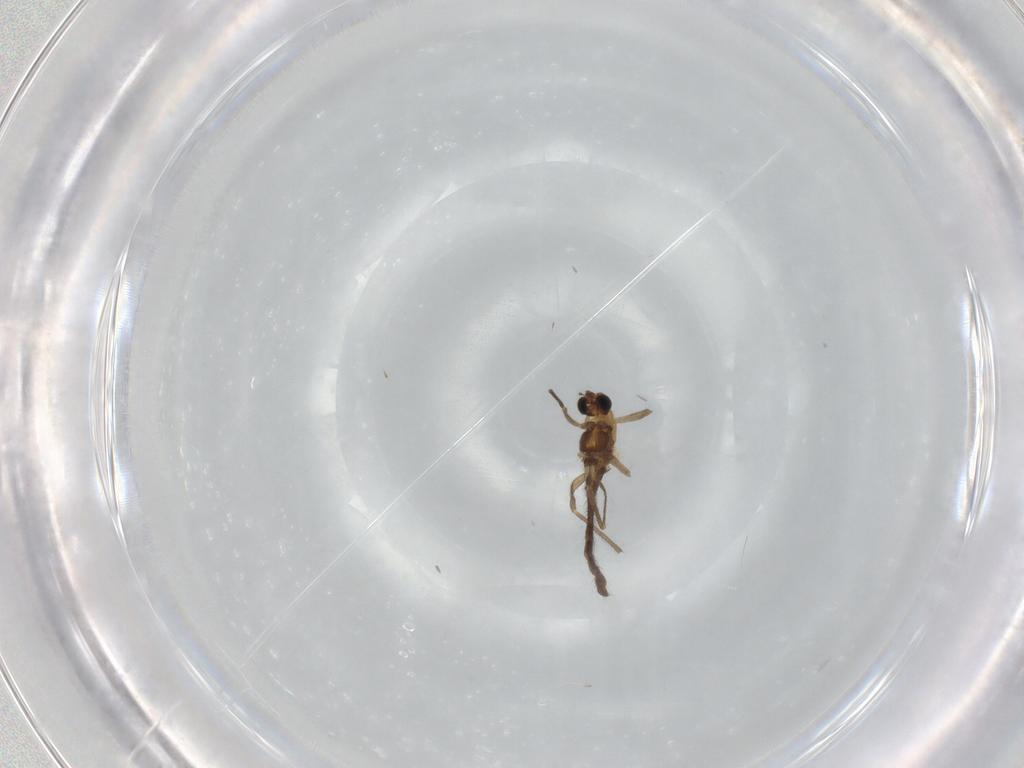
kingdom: Animalia
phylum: Arthropoda
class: Insecta
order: Diptera
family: Chironomidae
